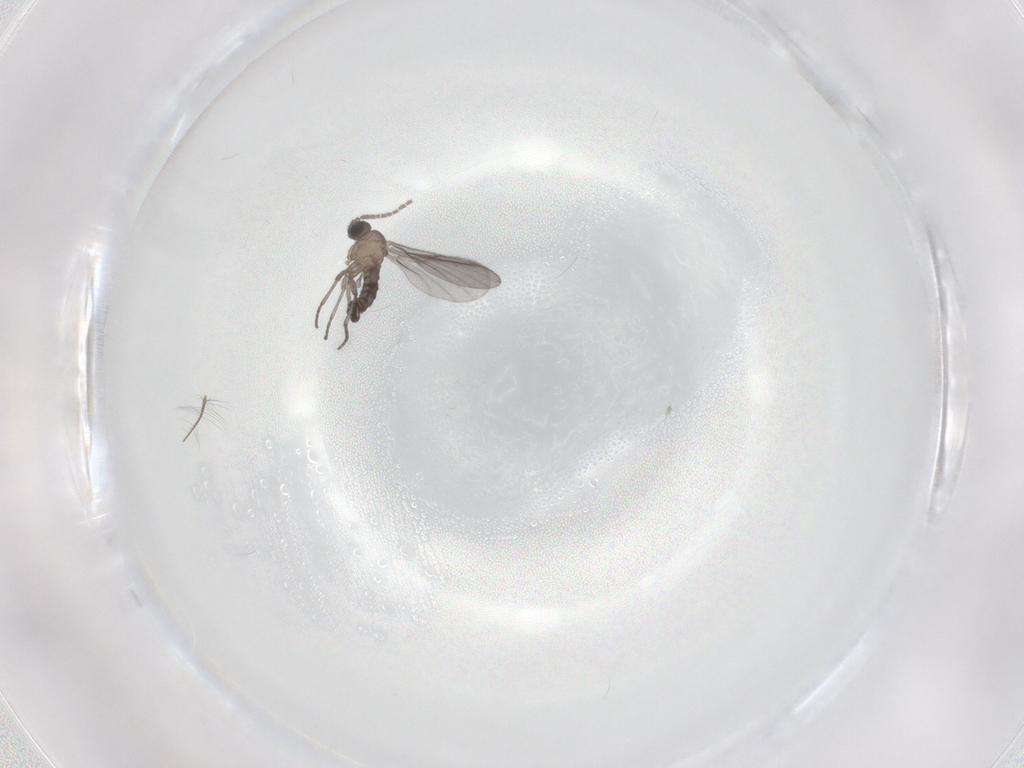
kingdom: Animalia
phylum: Arthropoda
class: Insecta
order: Diptera
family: Sciaridae
